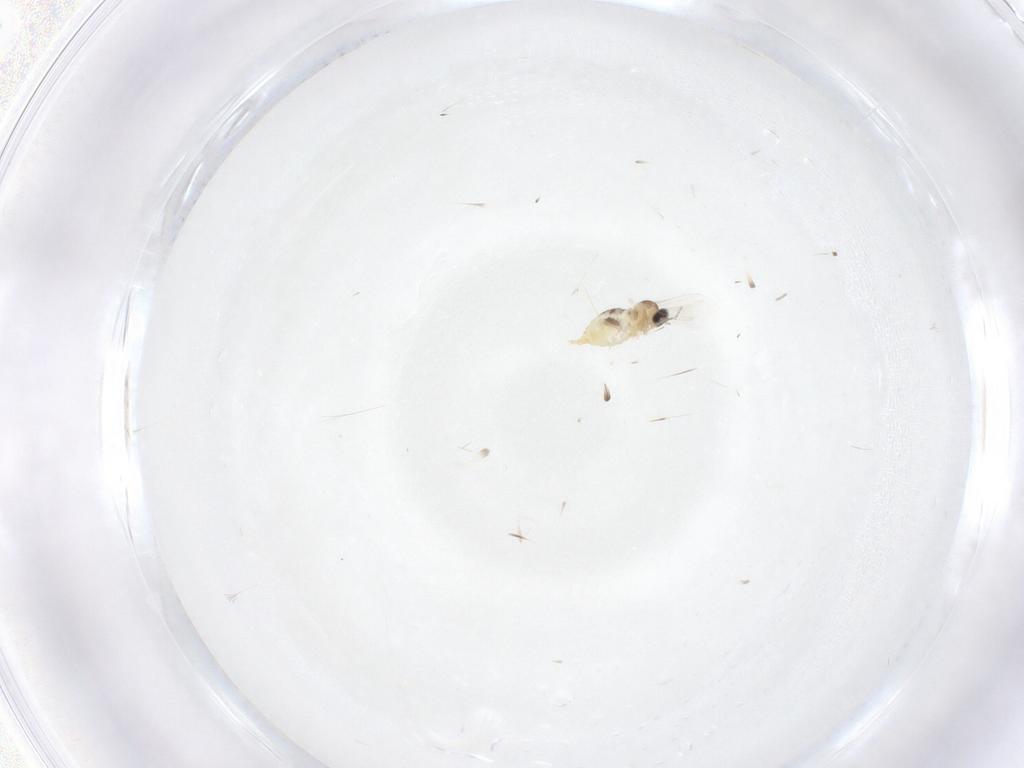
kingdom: Animalia
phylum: Arthropoda
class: Insecta
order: Diptera
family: Cecidomyiidae
